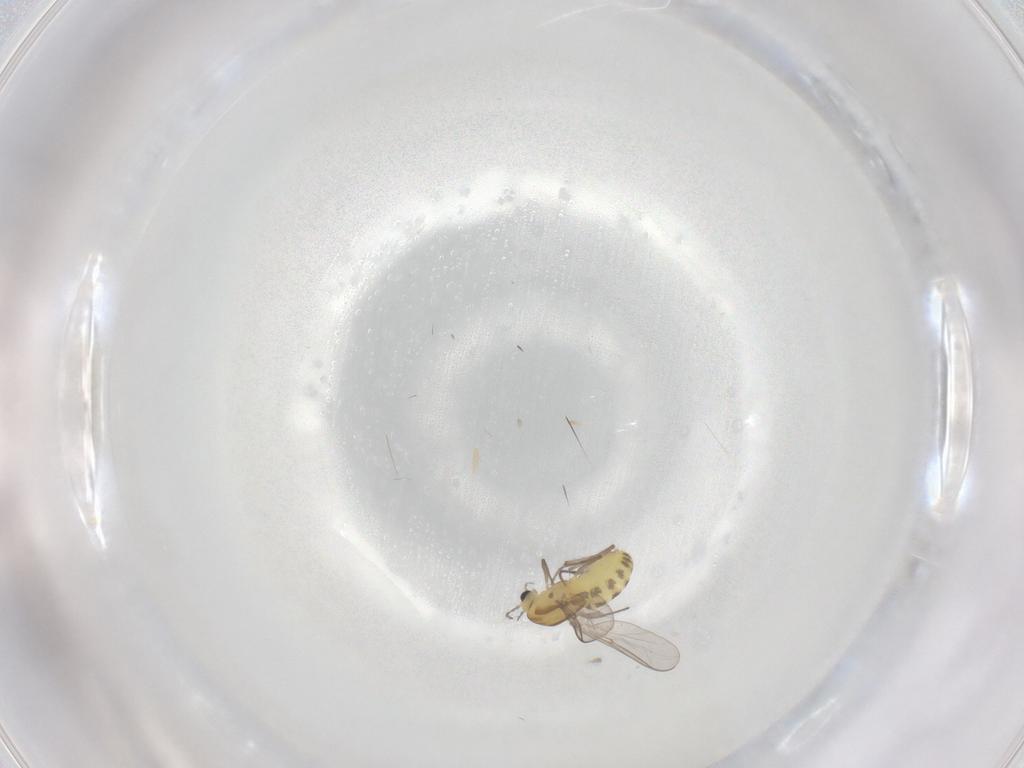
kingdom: Animalia
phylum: Arthropoda
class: Insecta
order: Diptera
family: Chironomidae
